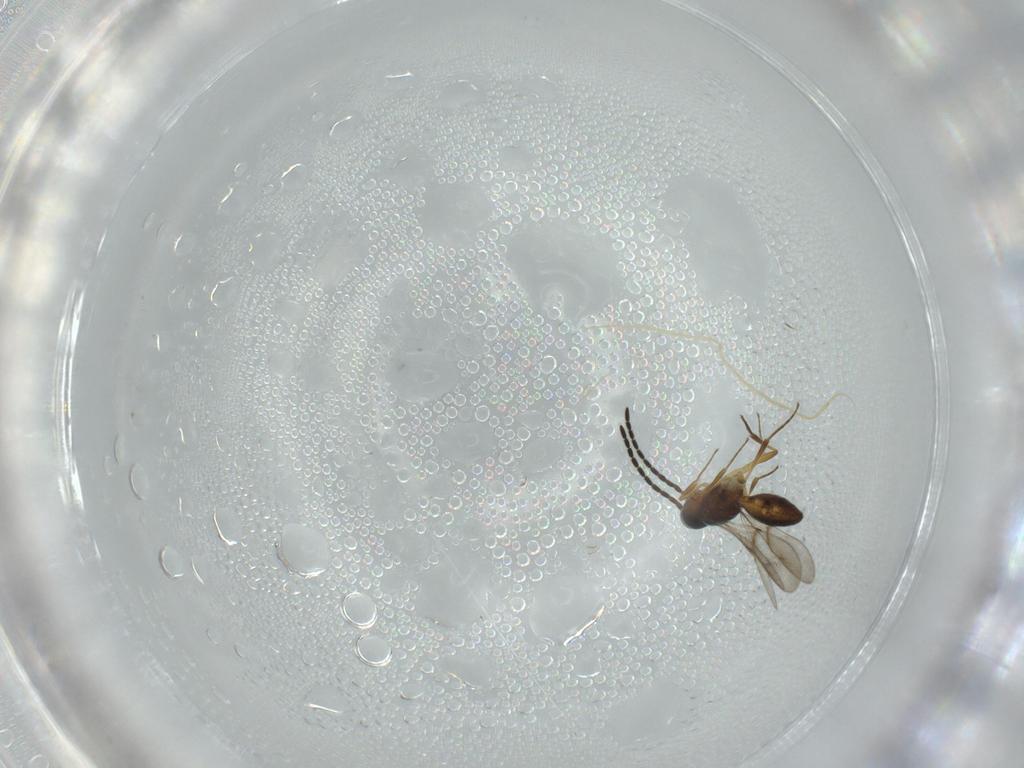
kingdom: Animalia
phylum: Arthropoda
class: Insecta
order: Hymenoptera
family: Scelionidae
